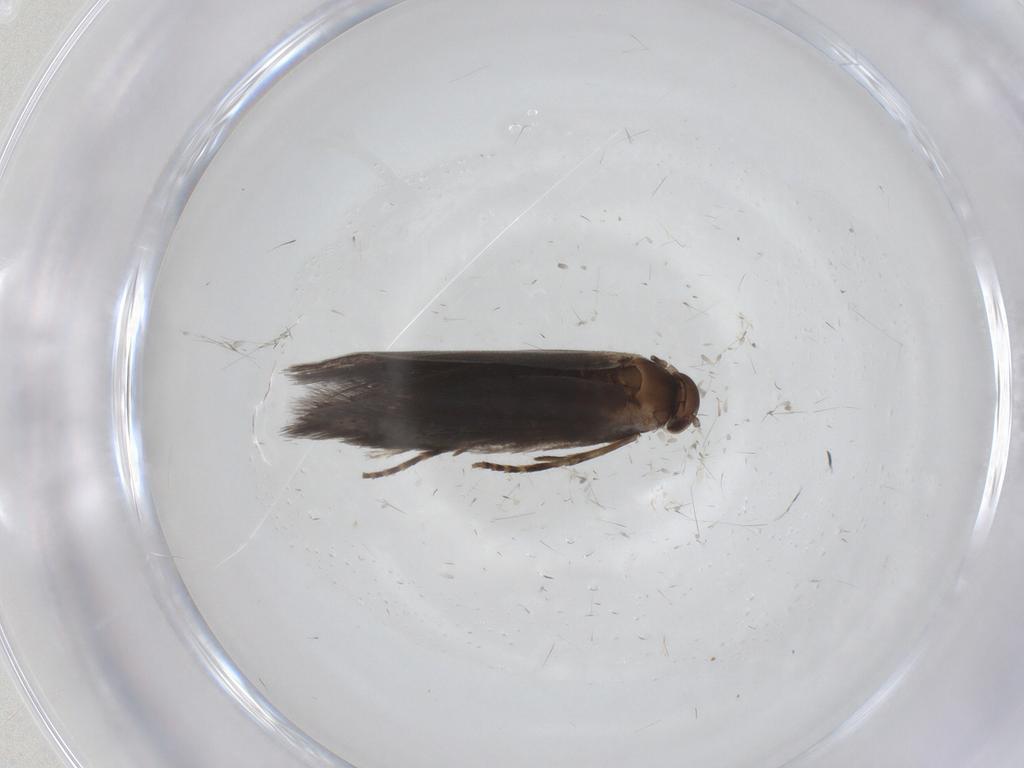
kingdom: Animalia
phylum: Arthropoda
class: Insecta
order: Lepidoptera
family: Elachistidae
